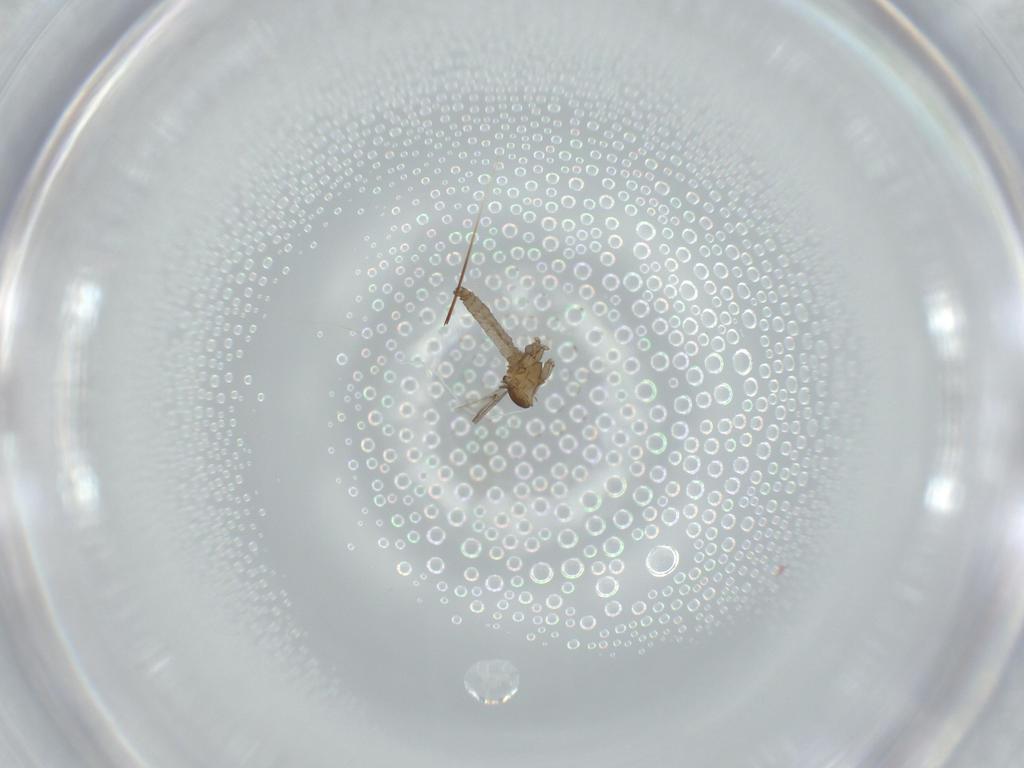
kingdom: Animalia
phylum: Arthropoda
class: Insecta
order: Diptera
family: Cecidomyiidae
